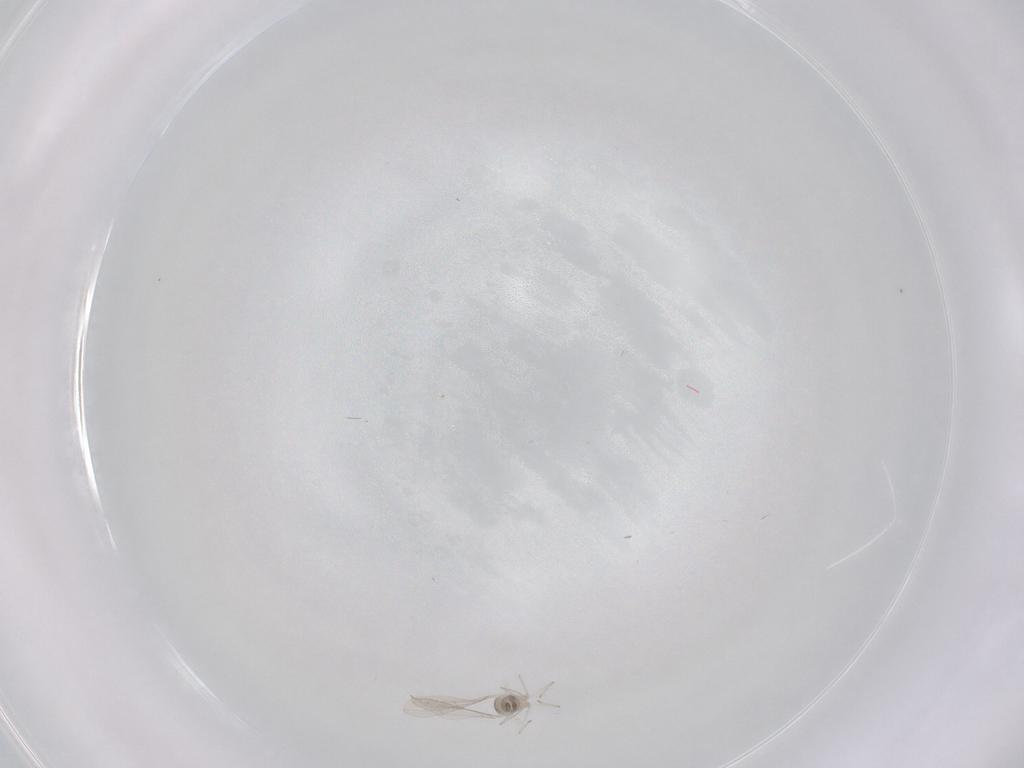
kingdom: Animalia
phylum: Arthropoda
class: Insecta
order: Diptera
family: Cecidomyiidae
